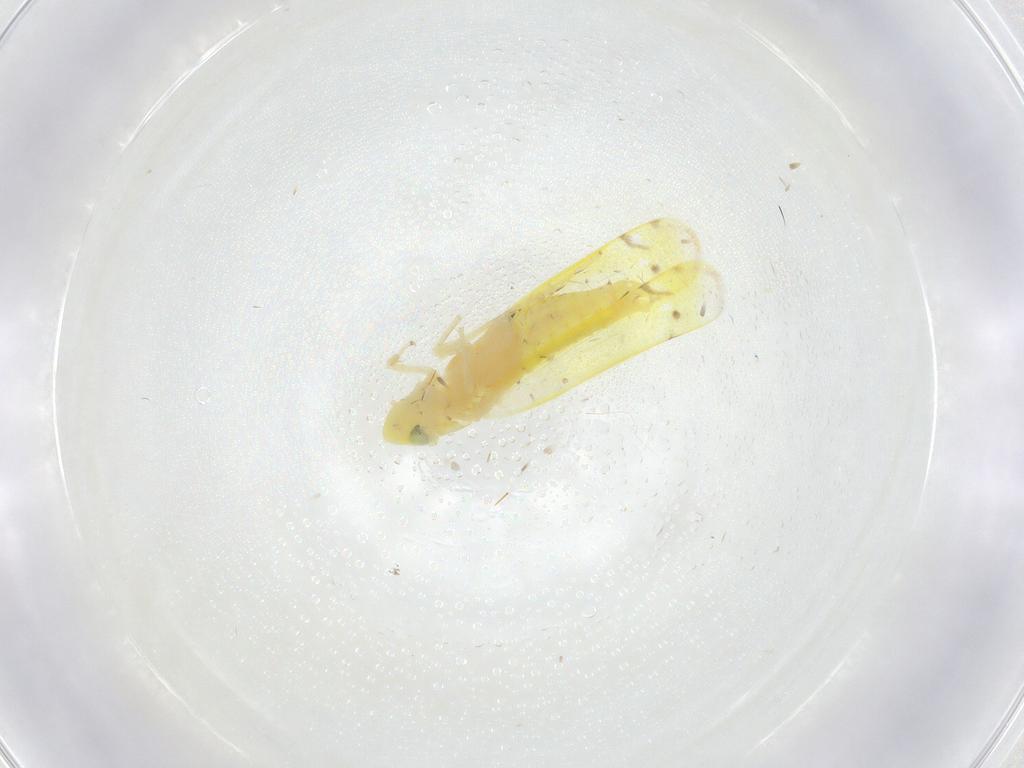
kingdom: Animalia
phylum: Arthropoda
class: Insecta
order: Hemiptera
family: Cicadellidae
